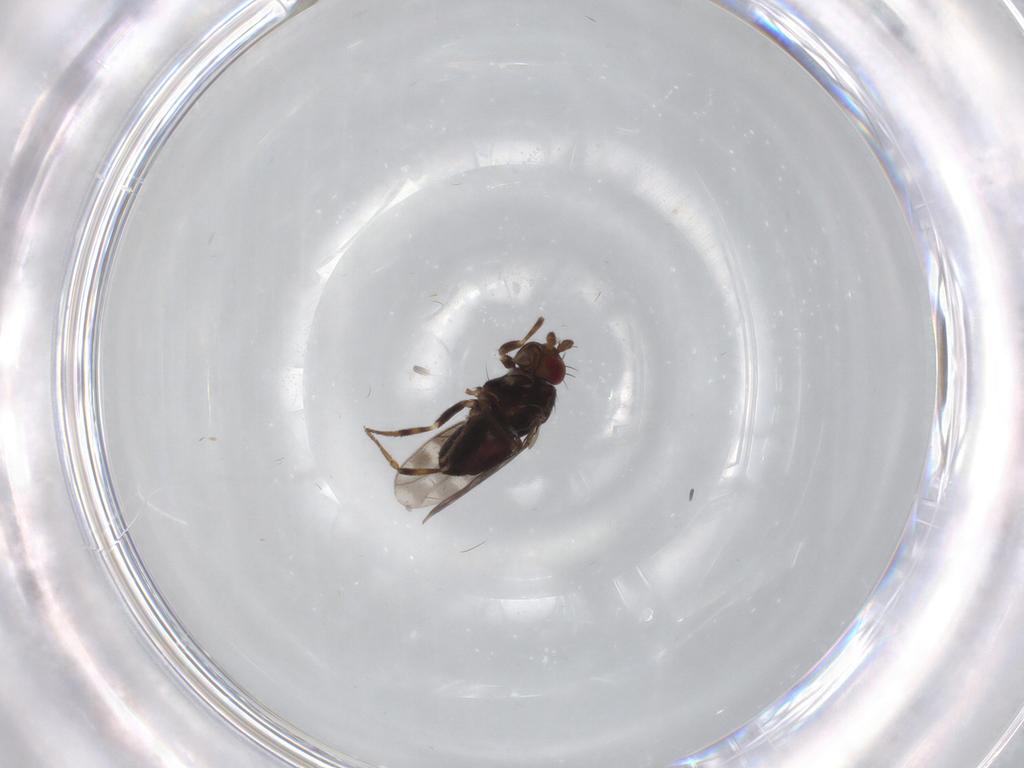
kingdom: Animalia
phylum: Arthropoda
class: Insecta
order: Diptera
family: Sphaeroceridae
